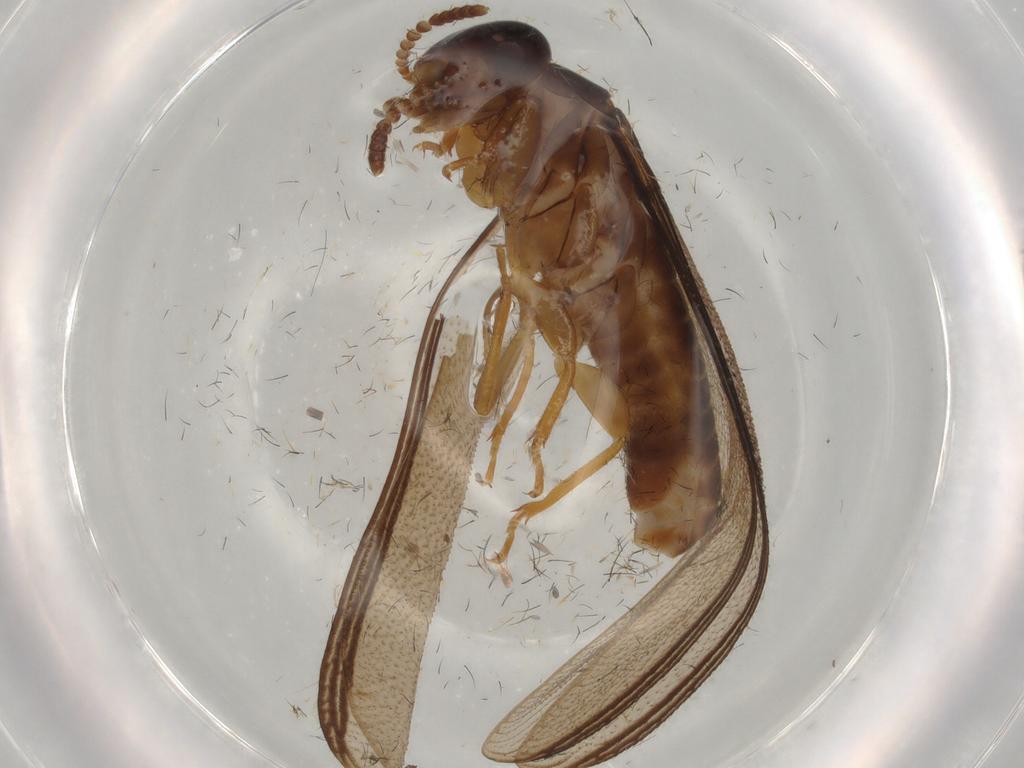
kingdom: Animalia
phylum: Arthropoda
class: Insecta
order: Blattodea
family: Kalotermitidae
